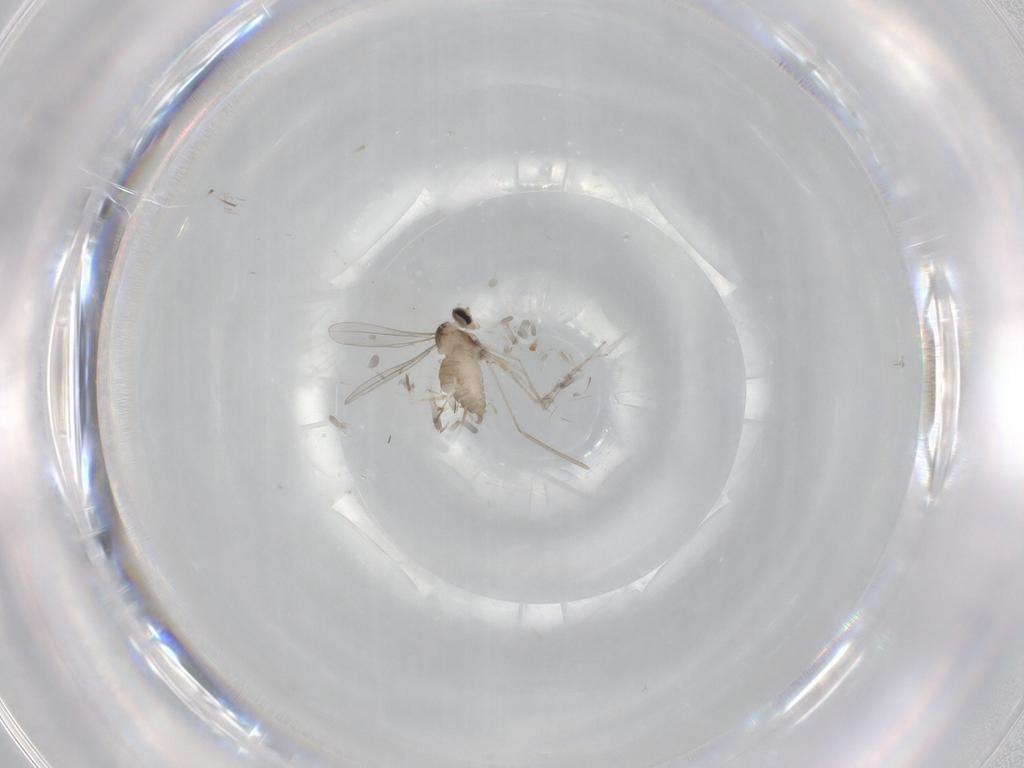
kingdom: Animalia
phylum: Arthropoda
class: Insecta
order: Diptera
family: Cecidomyiidae
